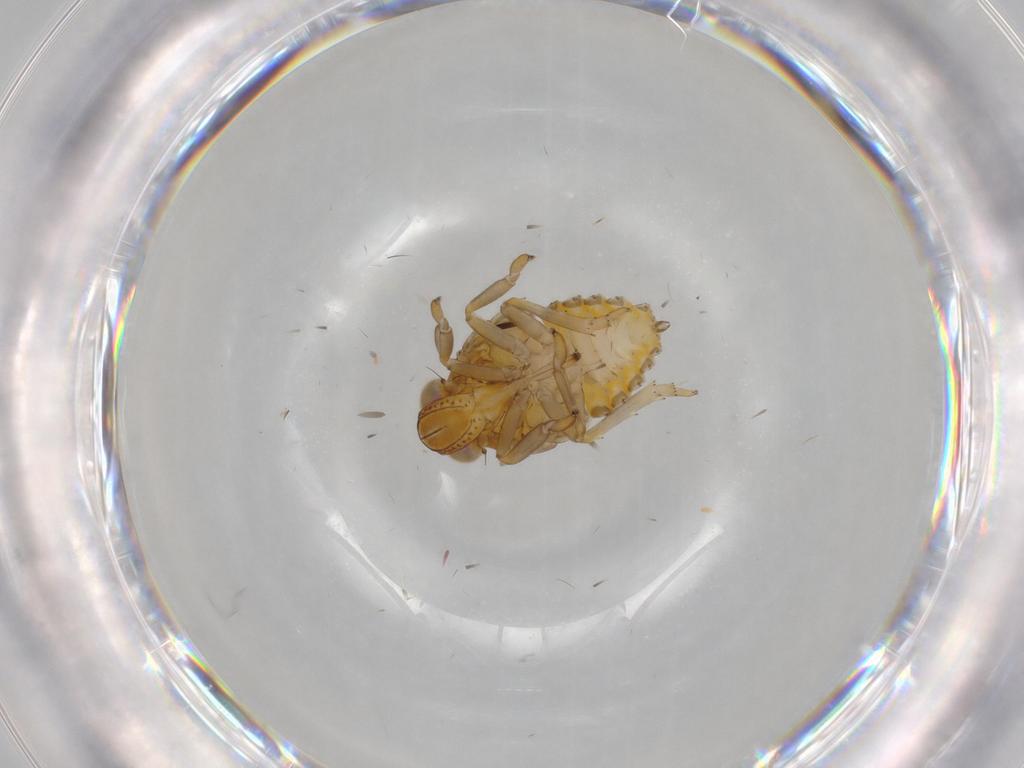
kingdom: Animalia
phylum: Arthropoda
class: Insecta
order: Hemiptera
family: Issidae
